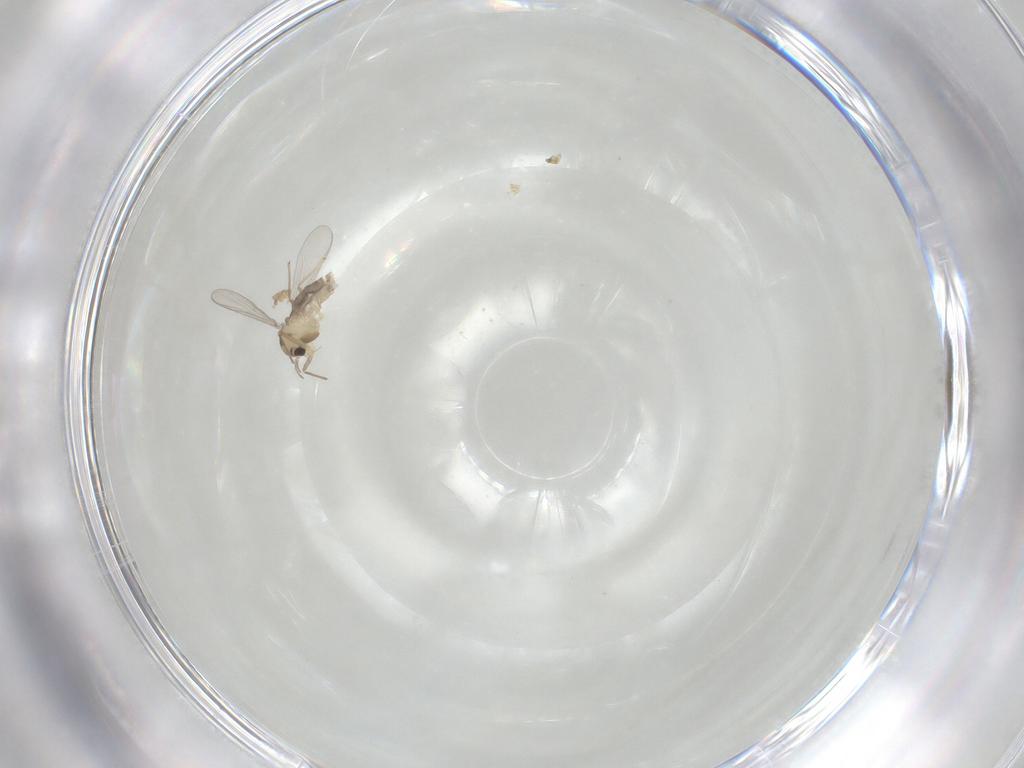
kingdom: Animalia
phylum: Arthropoda
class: Insecta
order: Diptera
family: Chironomidae
